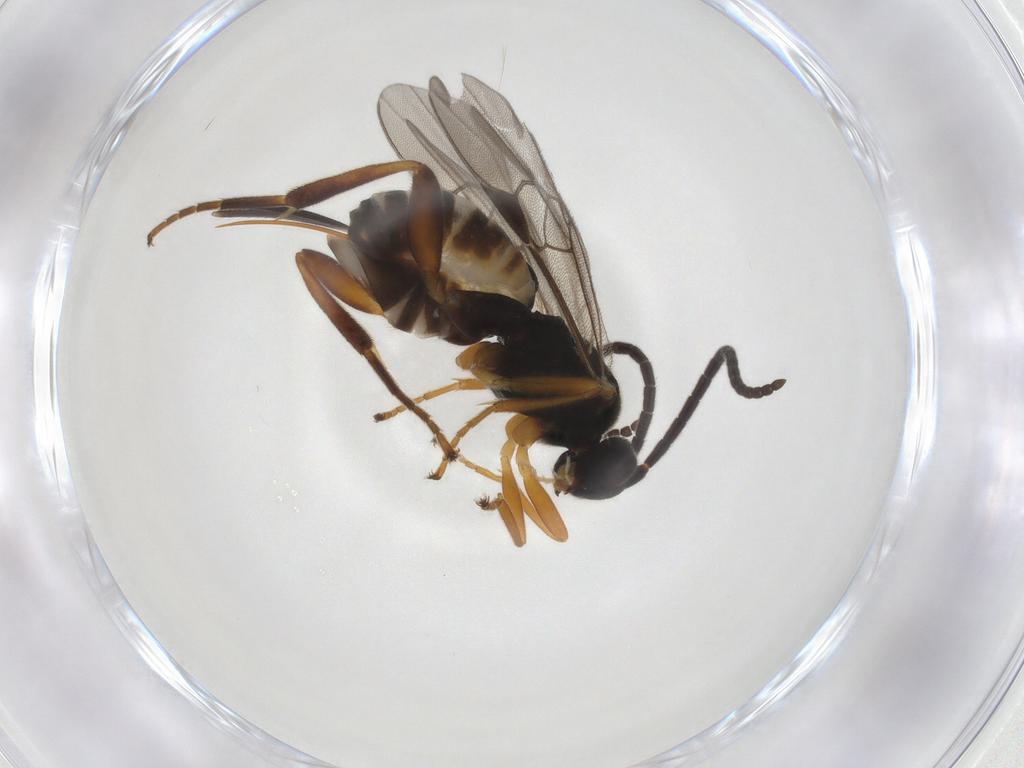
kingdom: Animalia
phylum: Arthropoda
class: Insecta
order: Hymenoptera
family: Braconidae
